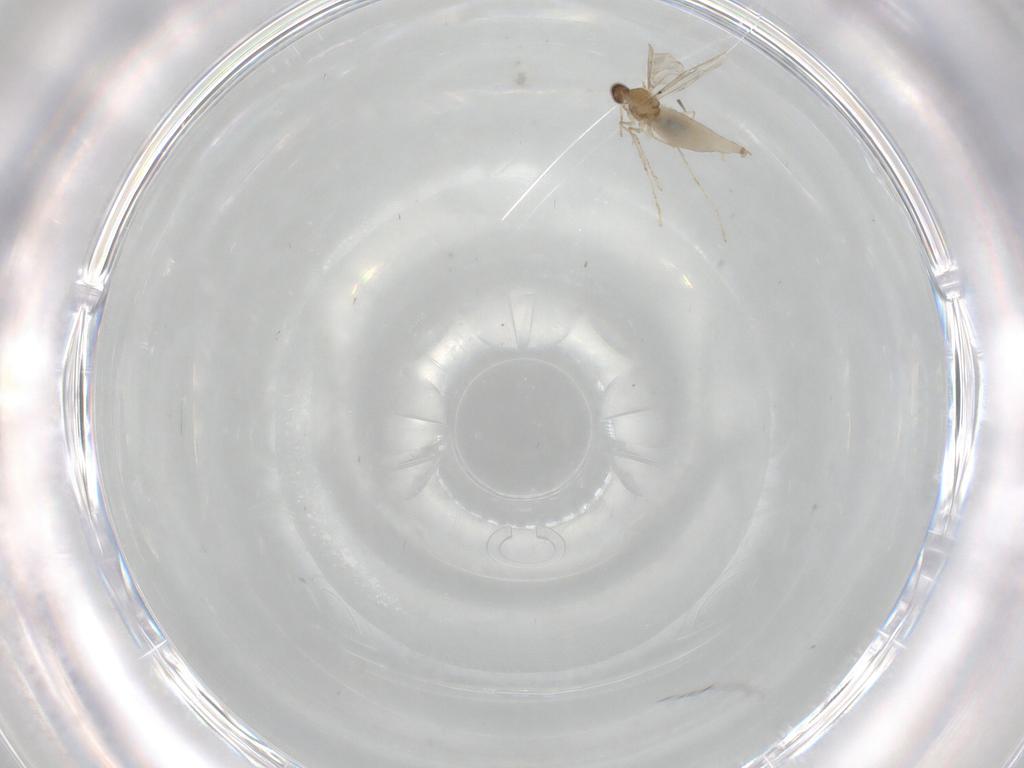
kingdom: Animalia
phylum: Arthropoda
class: Insecta
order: Diptera
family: Cecidomyiidae
